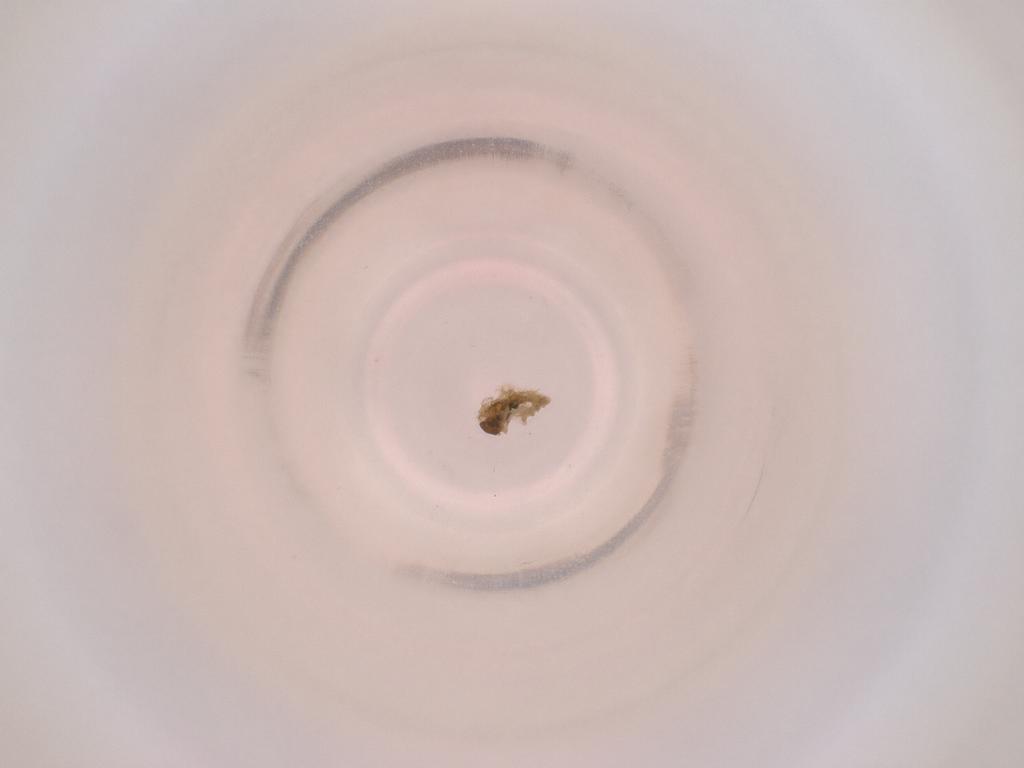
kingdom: Animalia
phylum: Arthropoda
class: Insecta
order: Diptera
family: Cecidomyiidae
